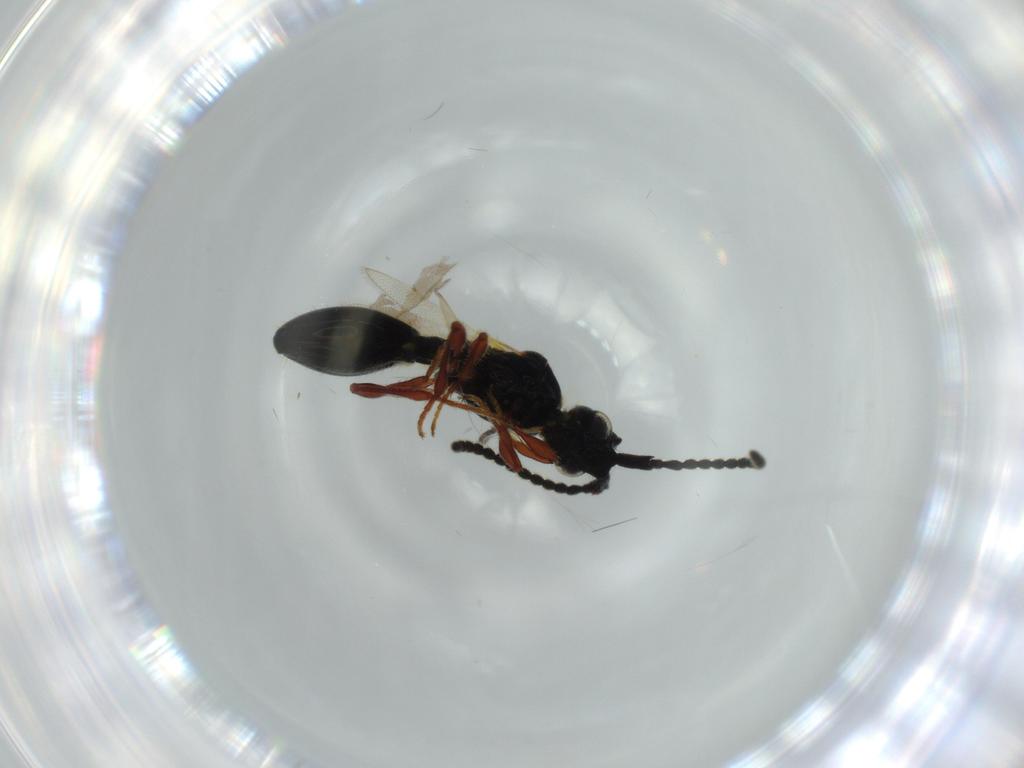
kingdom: Animalia
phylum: Arthropoda
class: Insecta
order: Hymenoptera
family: Diapriidae
